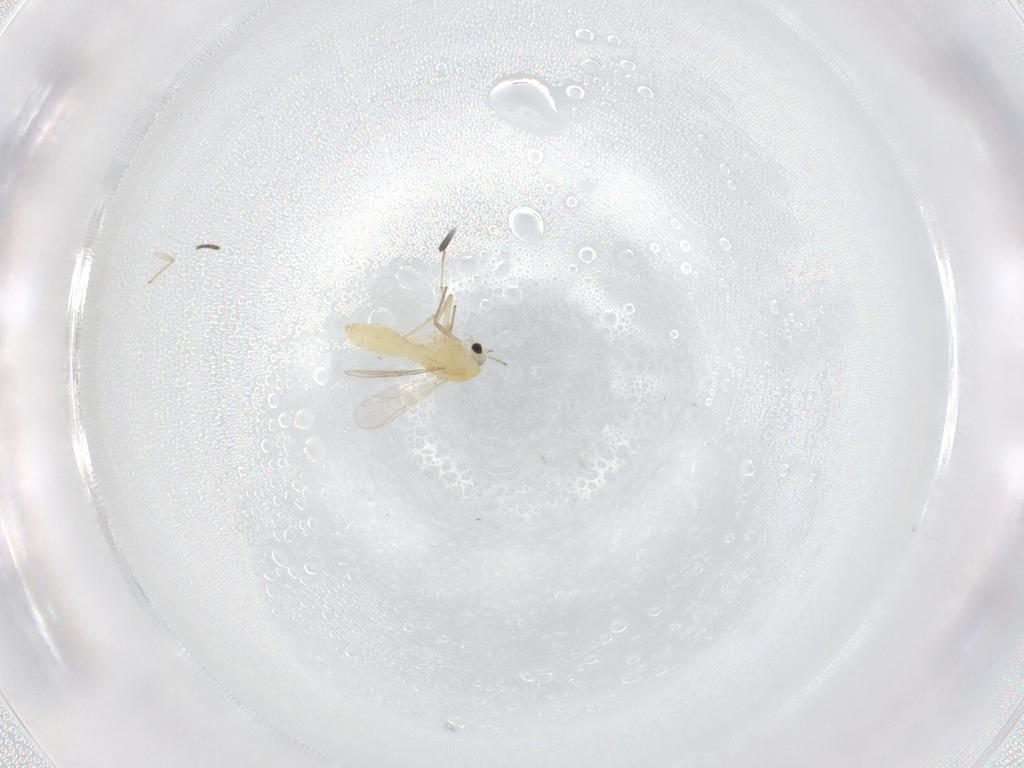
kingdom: Animalia
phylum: Arthropoda
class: Insecta
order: Diptera
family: Chironomidae
